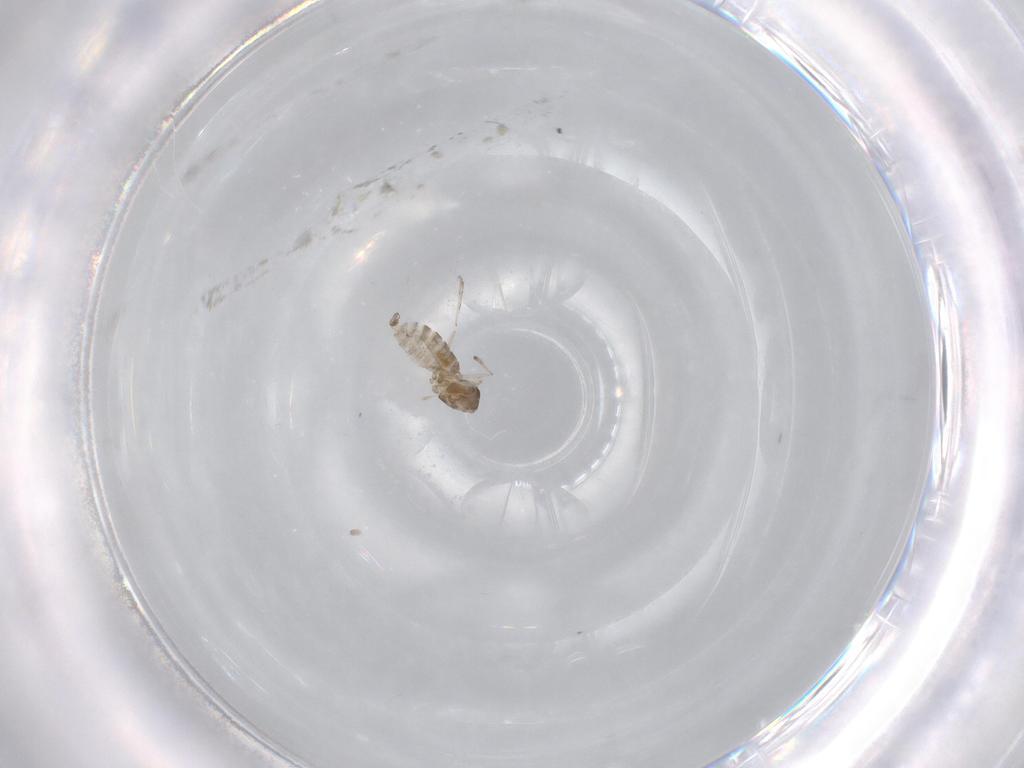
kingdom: Animalia
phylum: Arthropoda
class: Insecta
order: Diptera
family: Cecidomyiidae
